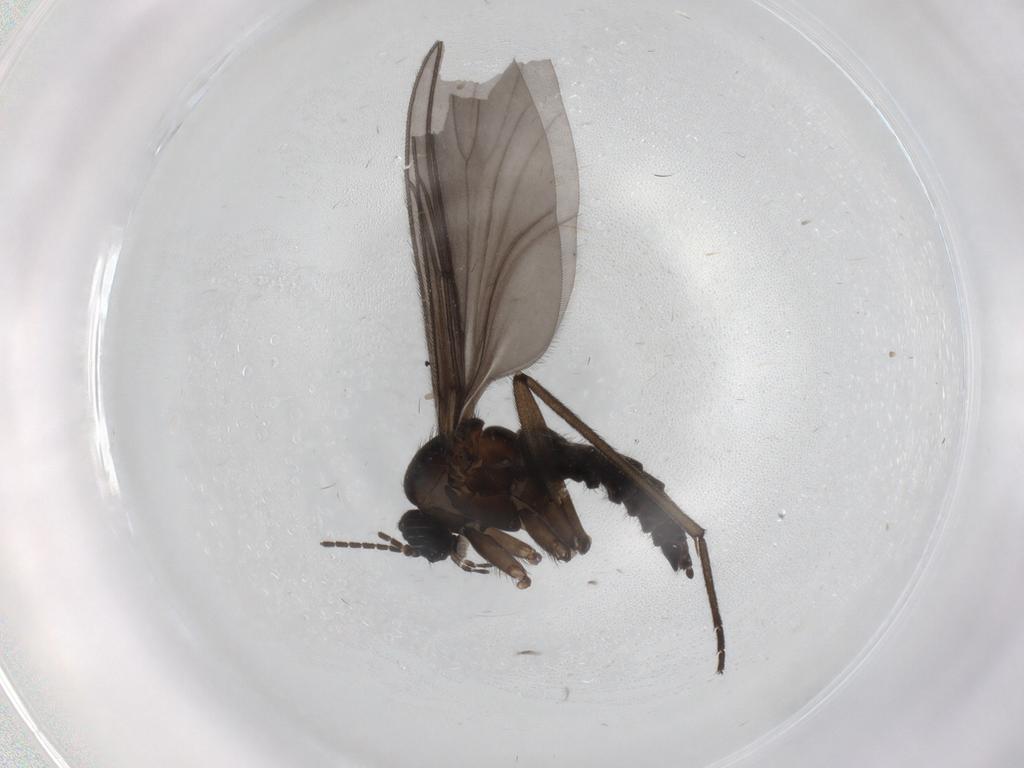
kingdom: Animalia
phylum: Arthropoda
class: Insecta
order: Diptera
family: Sciaridae
